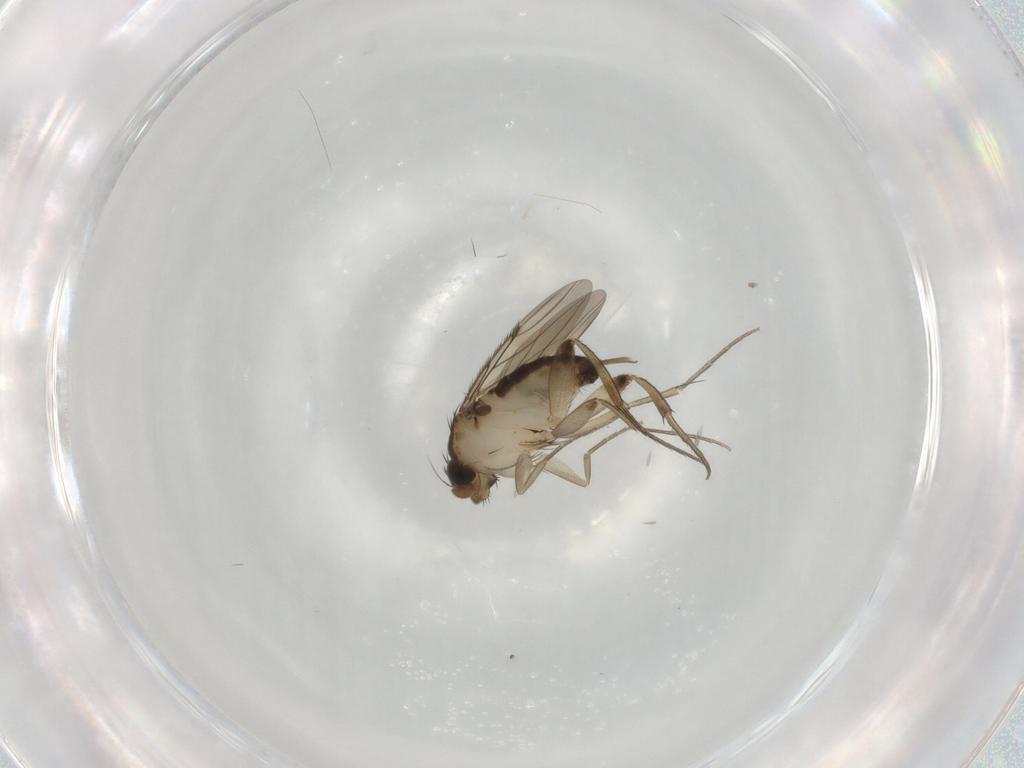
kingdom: Animalia
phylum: Arthropoda
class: Insecta
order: Diptera
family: Phoridae
